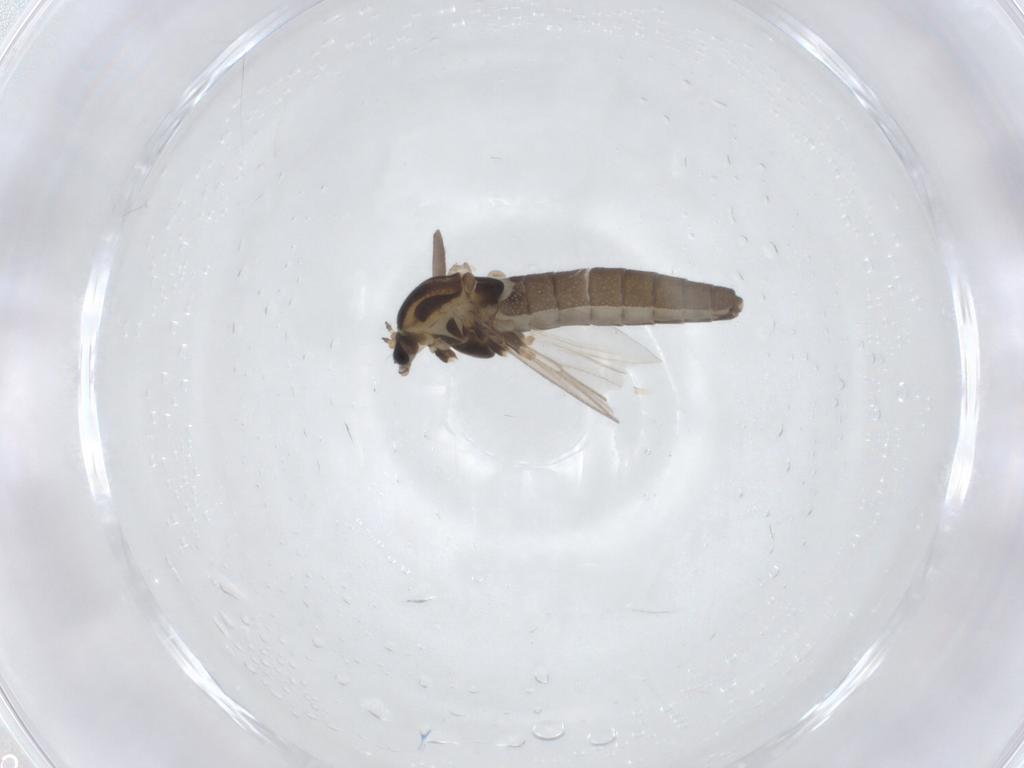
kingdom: Animalia
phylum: Arthropoda
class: Insecta
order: Diptera
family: Chironomidae
